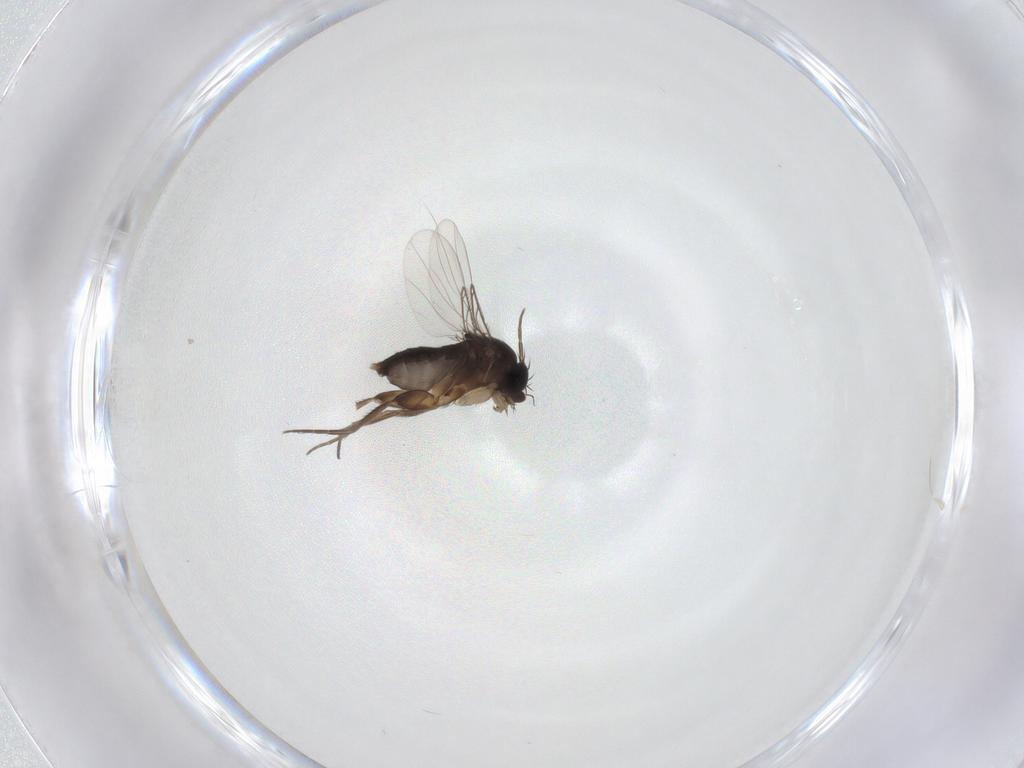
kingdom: Animalia
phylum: Arthropoda
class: Insecta
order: Diptera
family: Phoridae
